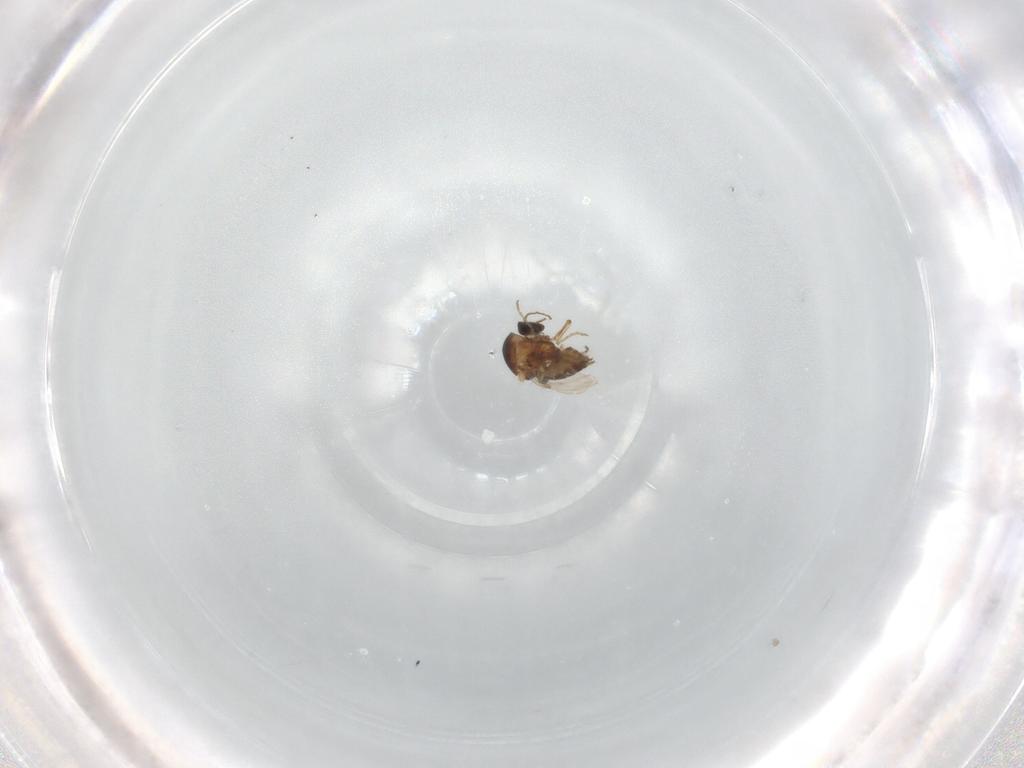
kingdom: Animalia
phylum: Arthropoda
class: Insecta
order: Diptera
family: Ceratopogonidae
